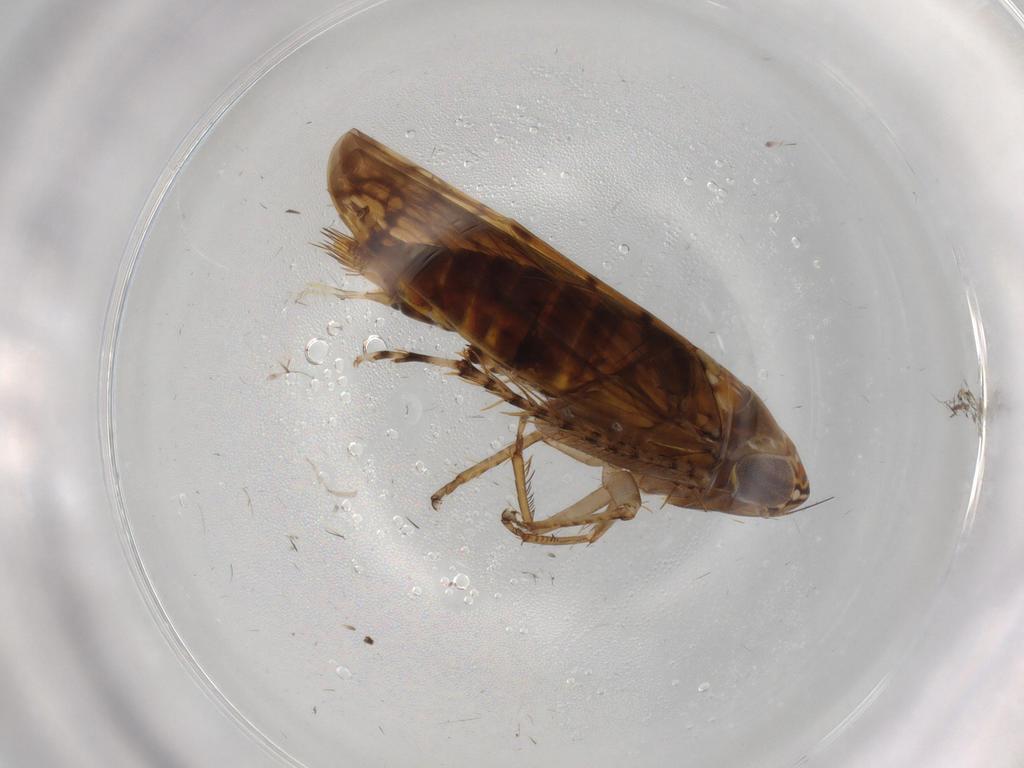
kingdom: Animalia
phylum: Arthropoda
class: Insecta
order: Hemiptera
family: Cicadellidae
